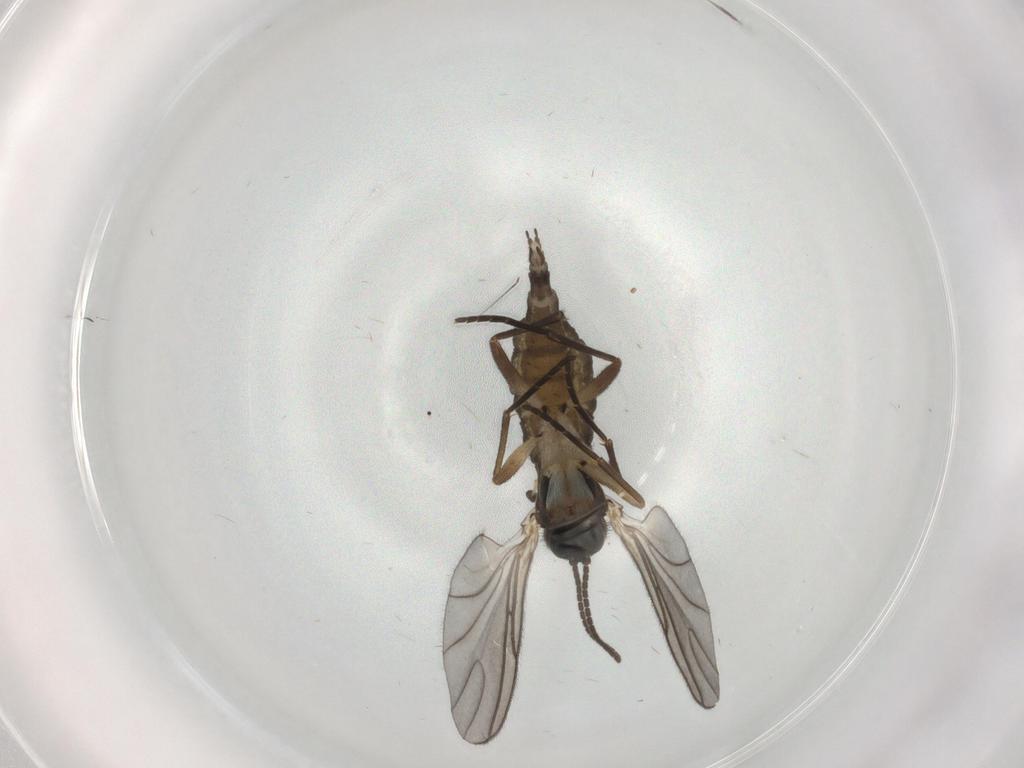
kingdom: Animalia
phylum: Arthropoda
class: Insecta
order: Diptera
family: Sciaridae
